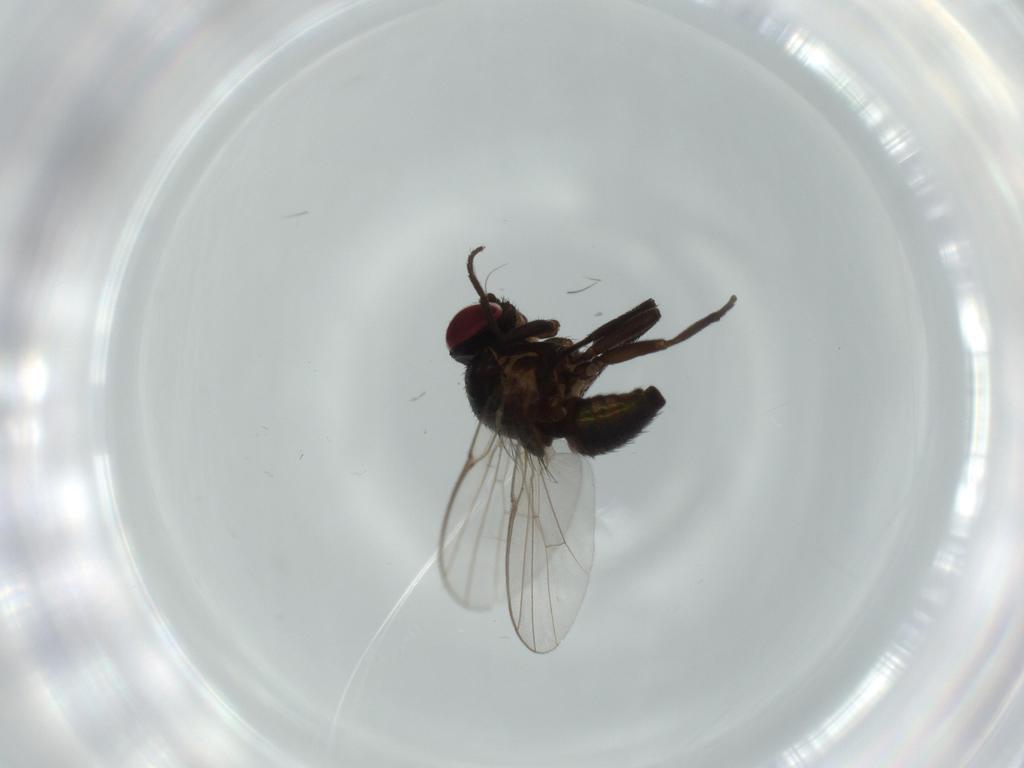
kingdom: Animalia
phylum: Arthropoda
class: Insecta
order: Diptera
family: Agromyzidae
